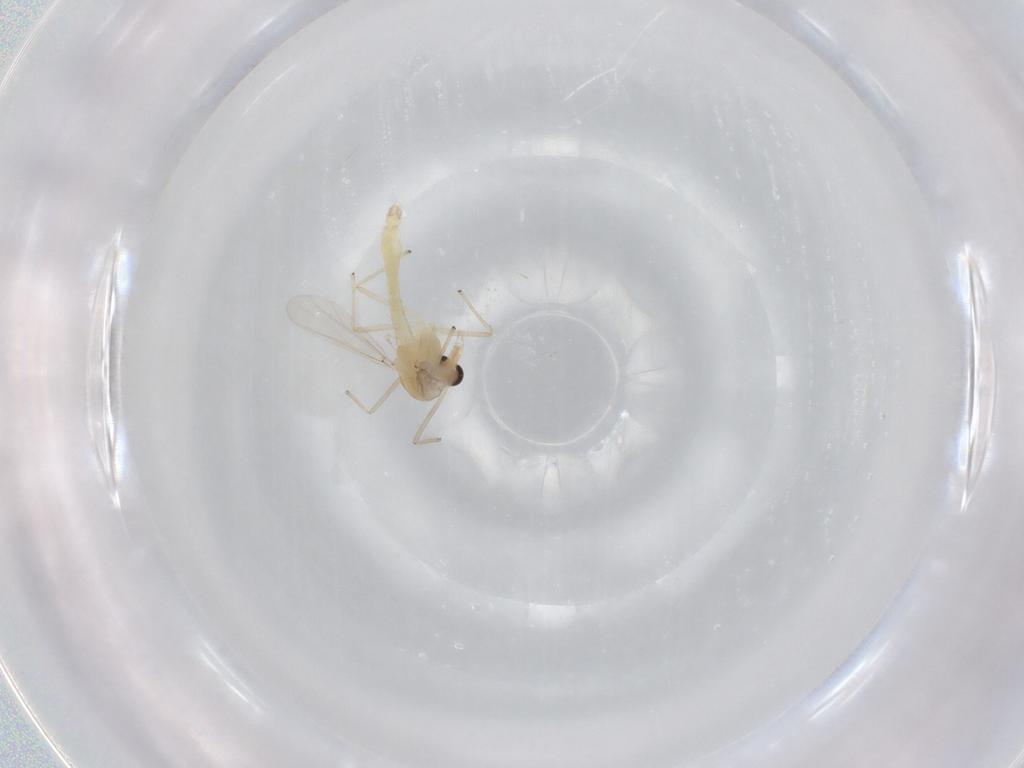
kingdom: Animalia
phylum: Arthropoda
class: Insecta
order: Diptera
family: Chironomidae
